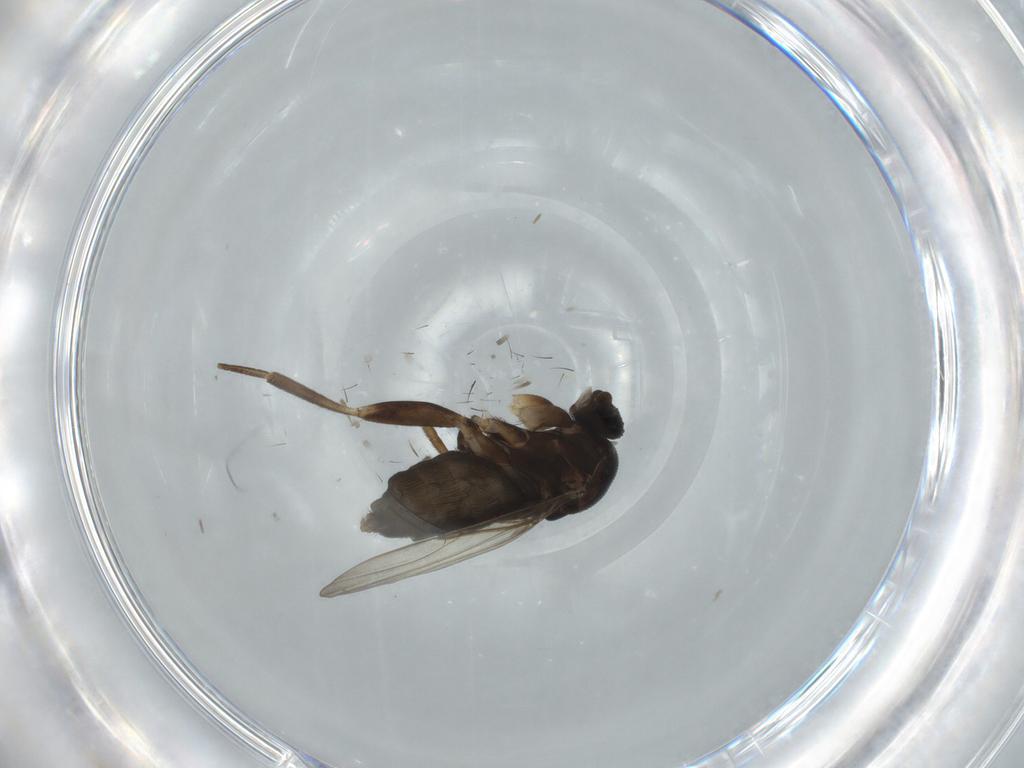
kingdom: Animalia
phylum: Arthropoda
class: Insecta
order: Diptera
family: Phoridae
